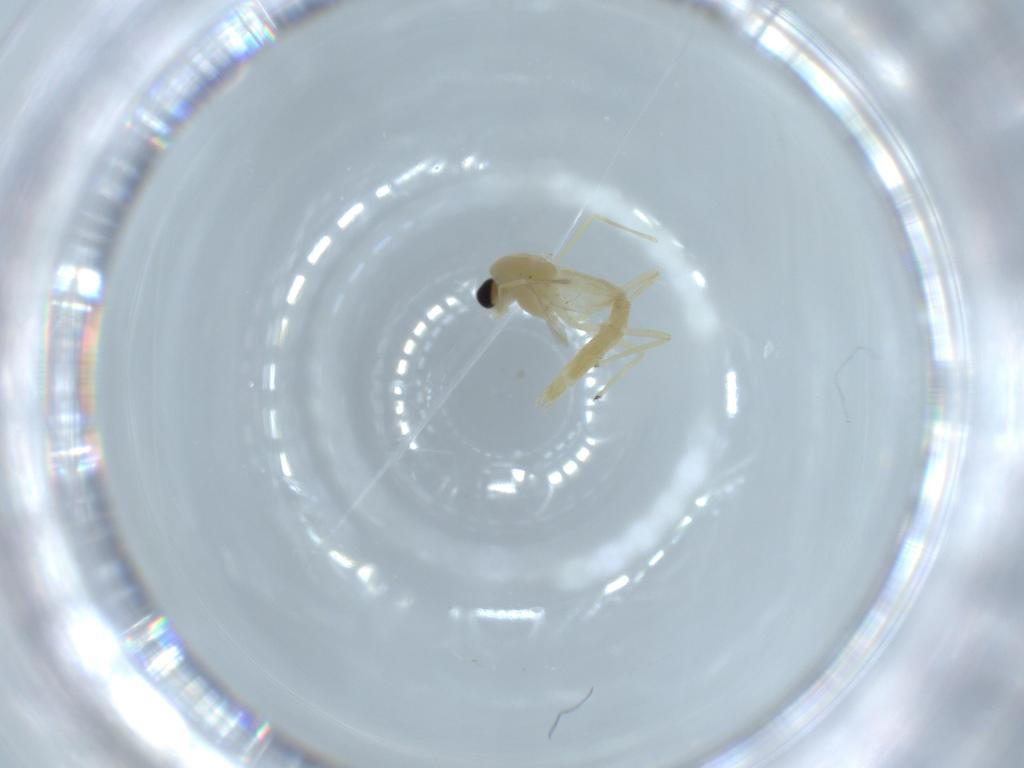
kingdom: Animalia
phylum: Arthropoda
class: Insecta
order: Diptera
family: Chironomidae
